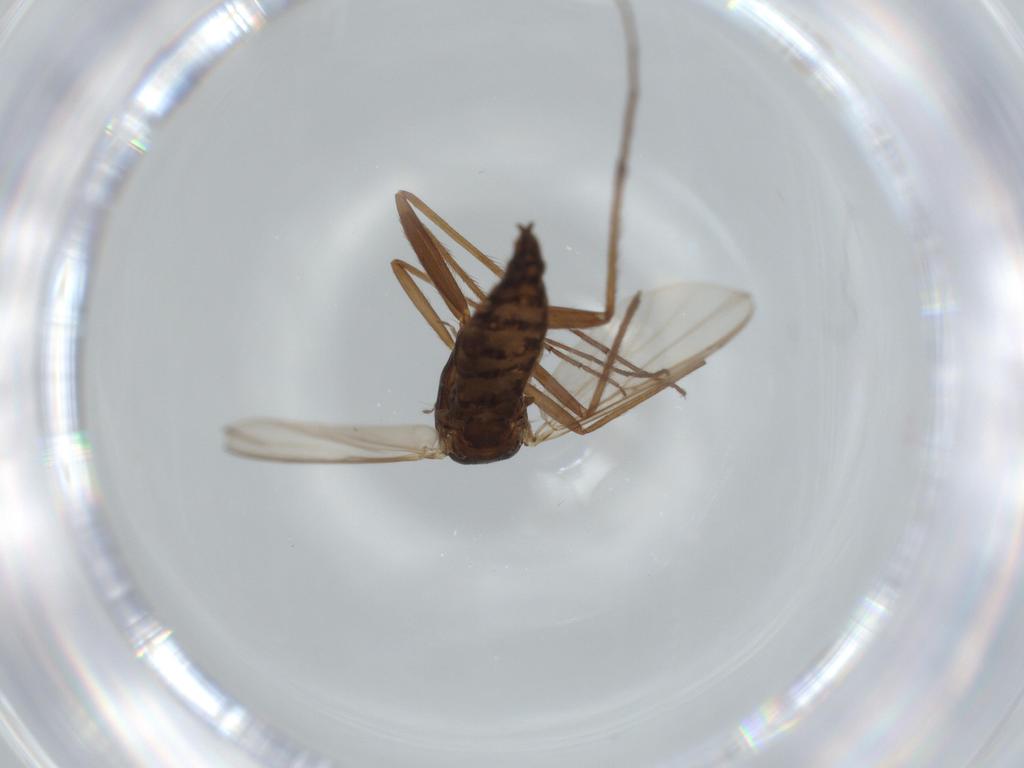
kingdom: Animalia
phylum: Arthropoda
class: Insecta
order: Diptera
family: Sphaeroceridae
